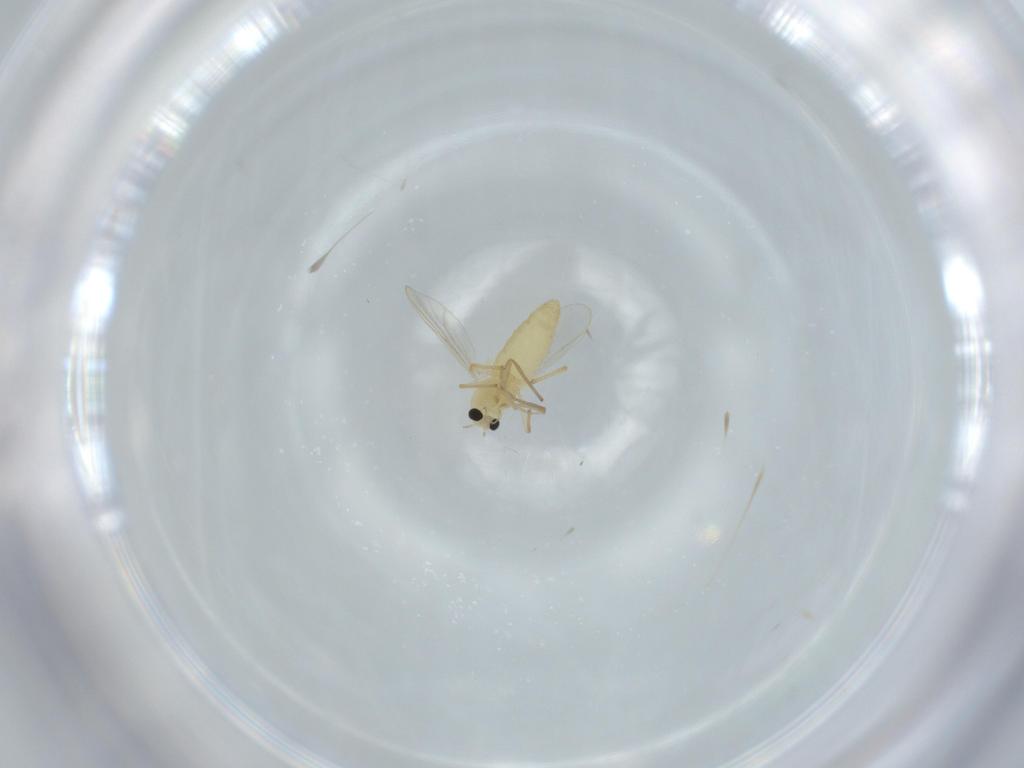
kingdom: Animalia
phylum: Arthropoda
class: Insecta
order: Diptera
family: Chironomidae
